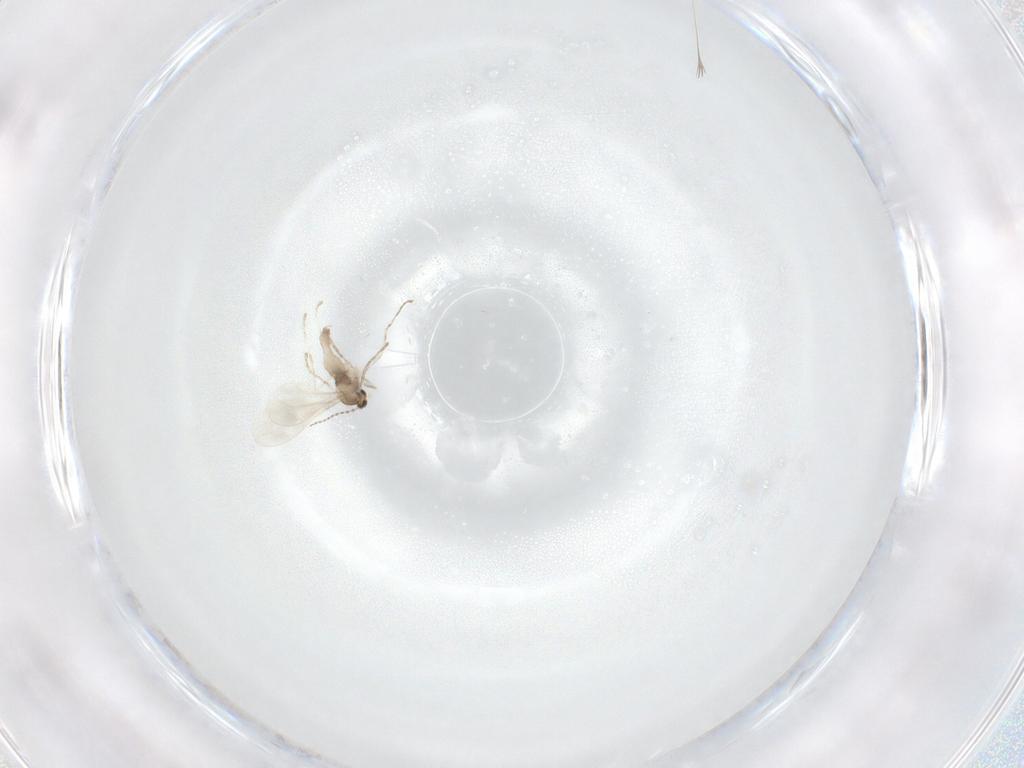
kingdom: Animalia
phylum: Arthropoda
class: Insecta
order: Diptera
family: Cecidomyiidae
